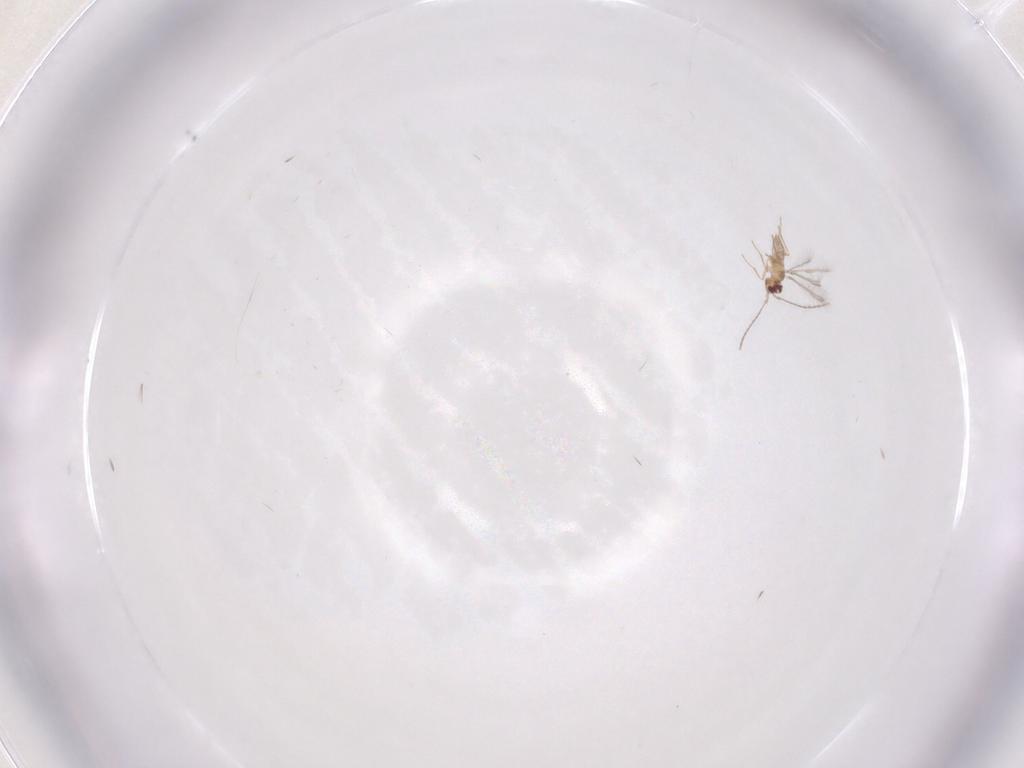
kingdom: Animalia
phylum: Arthropoda
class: Insecta
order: Hymenoptera
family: Mymaridae
